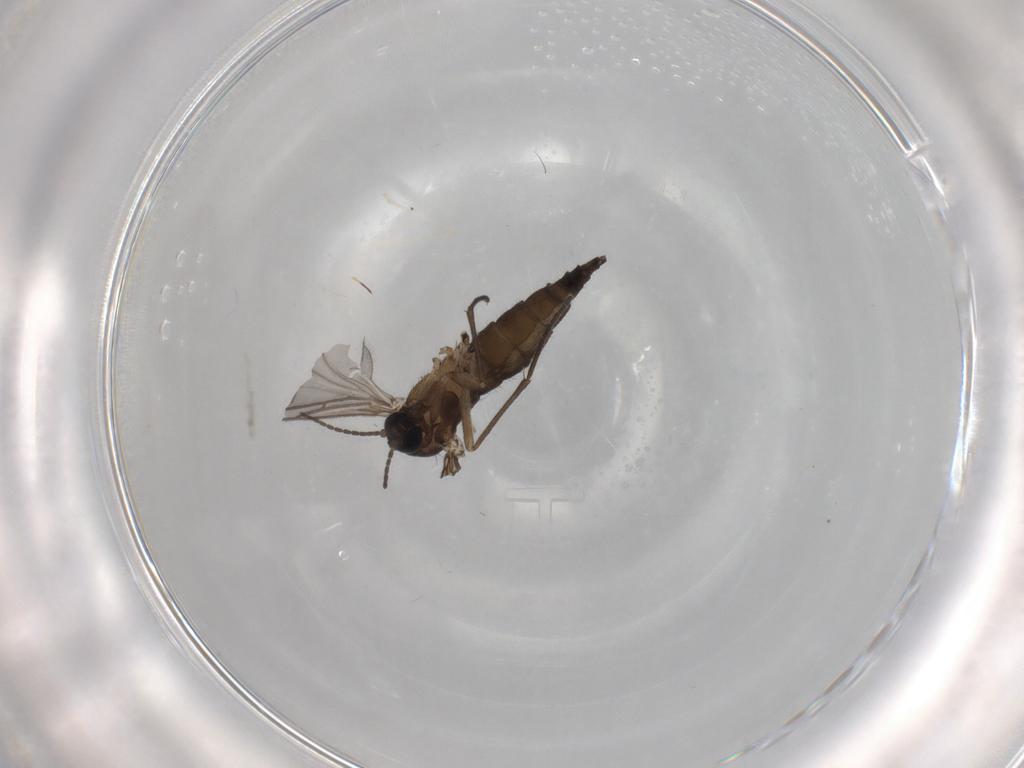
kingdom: Animalia
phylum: Arthropoda
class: Insecta
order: Diptera
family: Sciaridae
